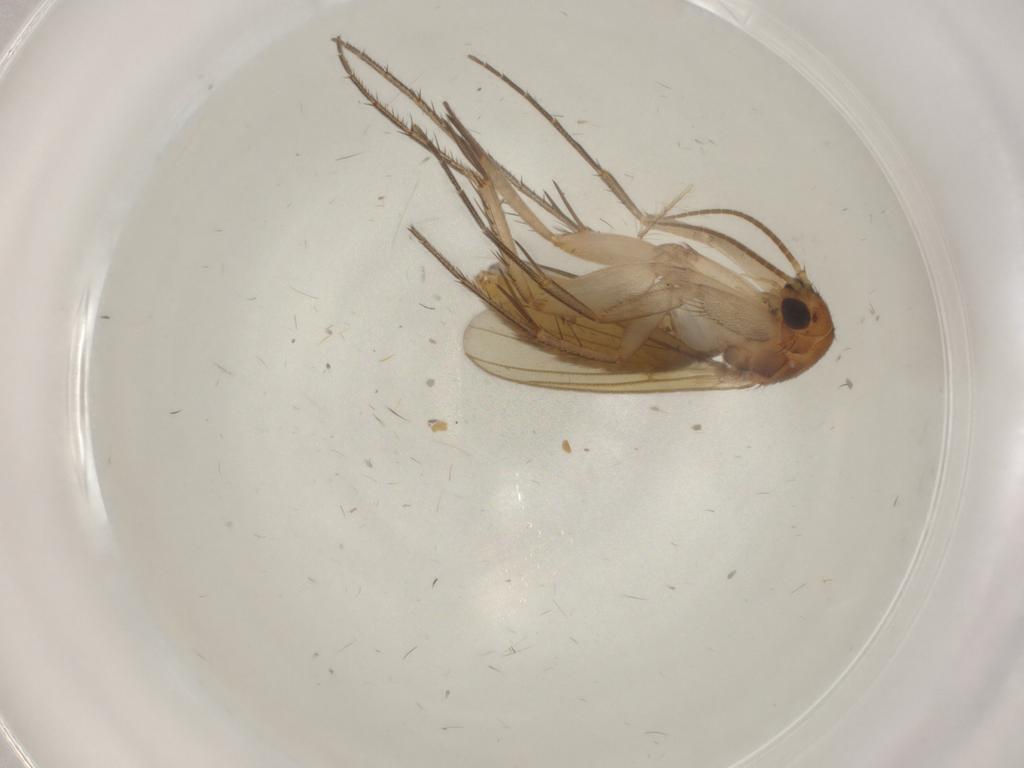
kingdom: Animalia
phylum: Arthropoda
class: Insecta
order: Diptera
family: Mycetophilidae
